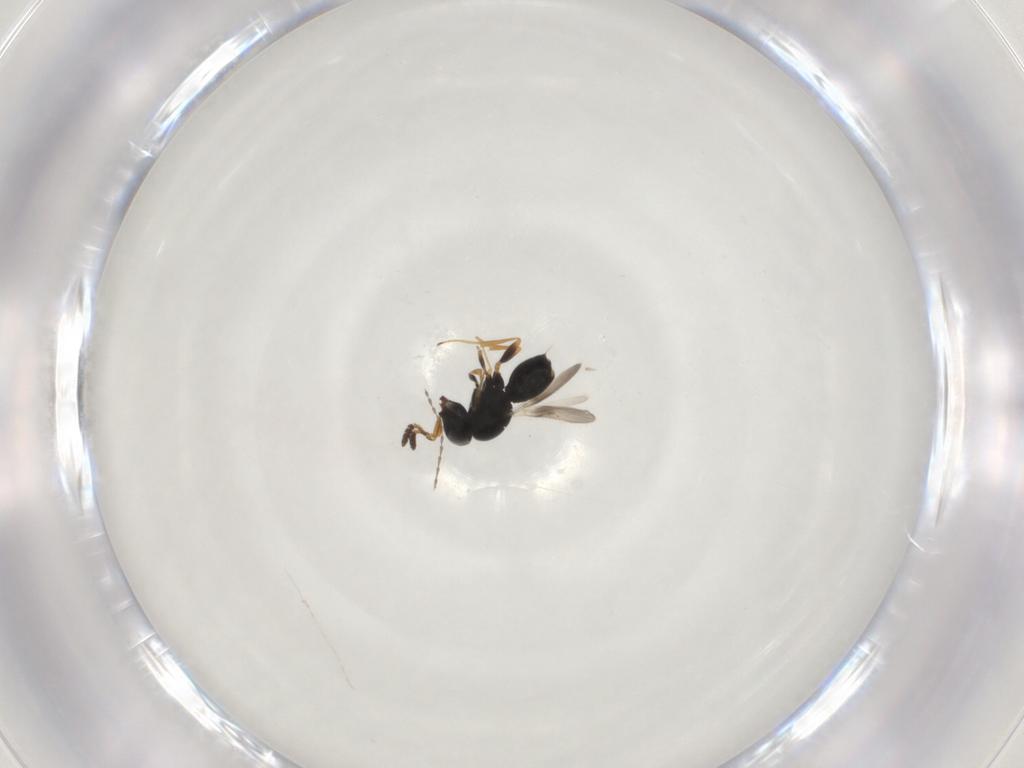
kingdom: Animalia
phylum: Arthropoda
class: Insecta
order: Hymenoptera
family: Scelionidae
